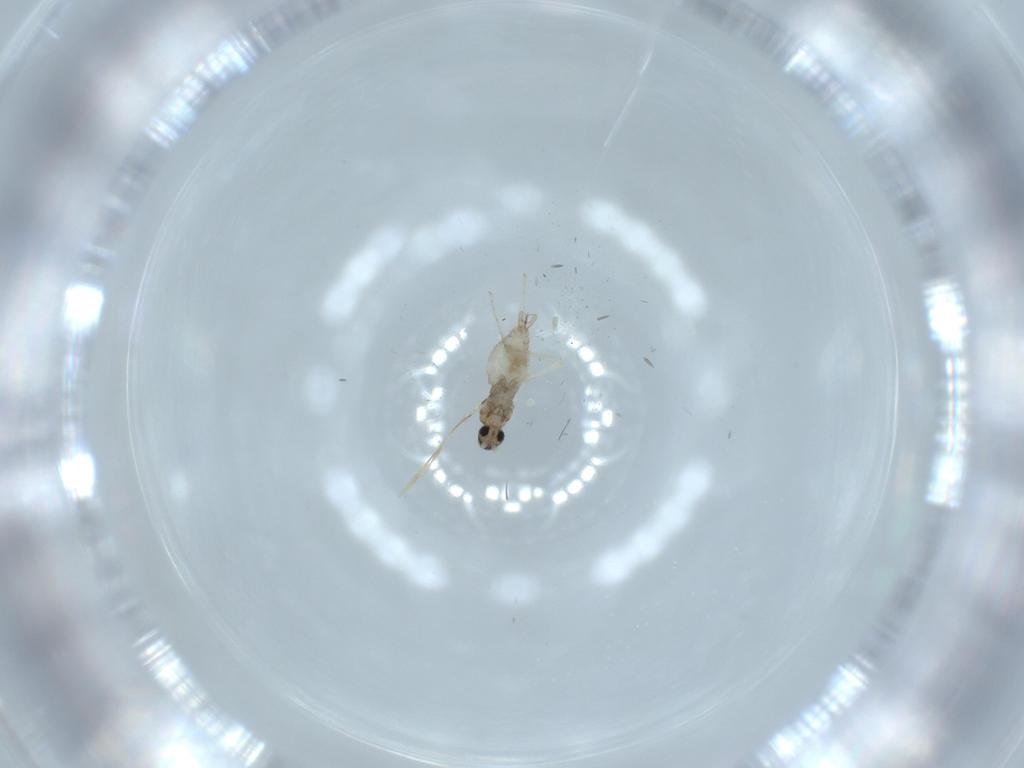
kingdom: Animalia
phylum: Arthropoda
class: Insecta
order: Diptera
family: Cecidomyiidae
